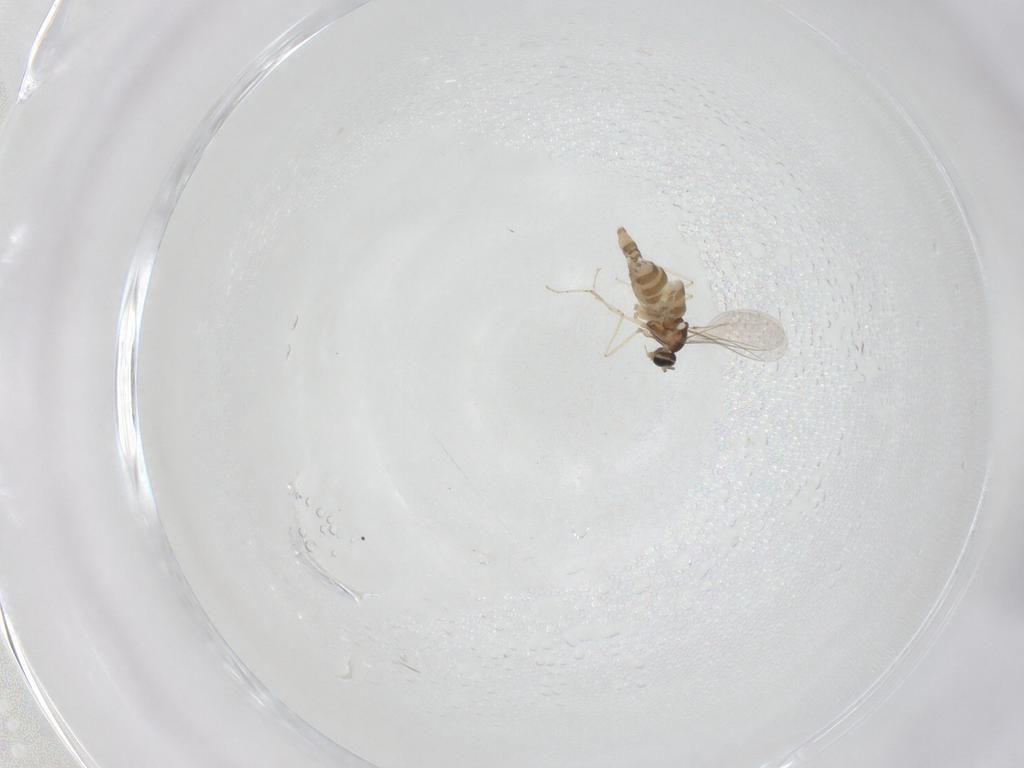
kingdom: Animalia
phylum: Arthropoda
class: Insecta
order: Diptera
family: Cecidomyiidae
